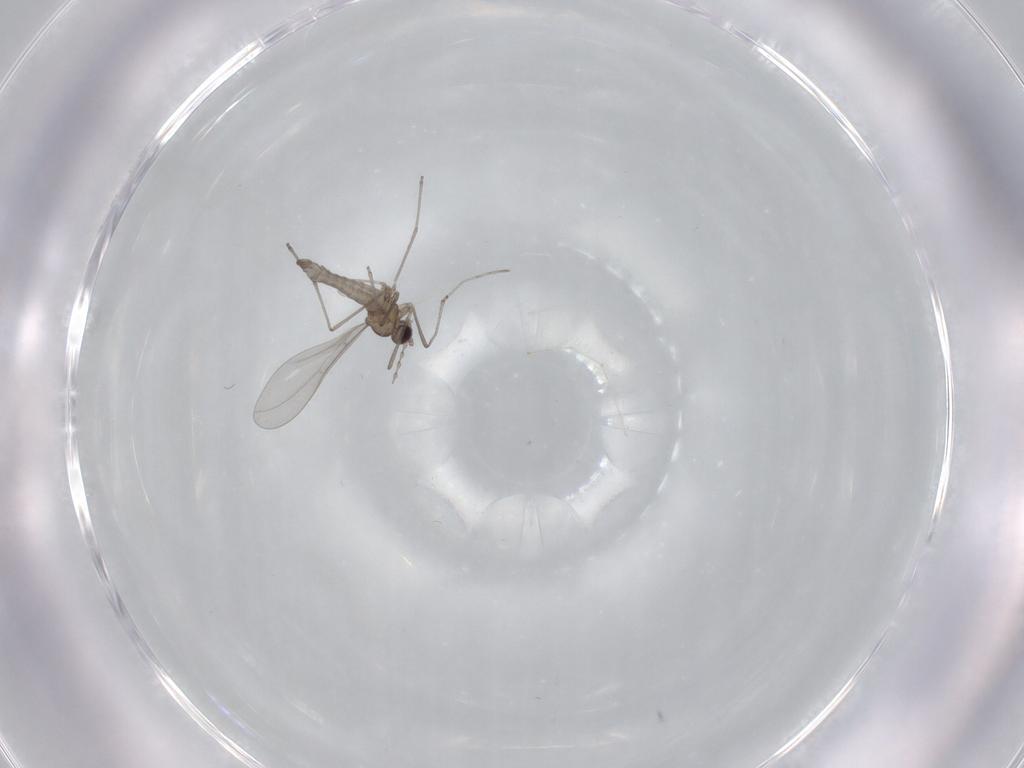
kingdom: Animalia
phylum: Arthropoda
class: Insecta
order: Diptera
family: Cecidomyiidae
